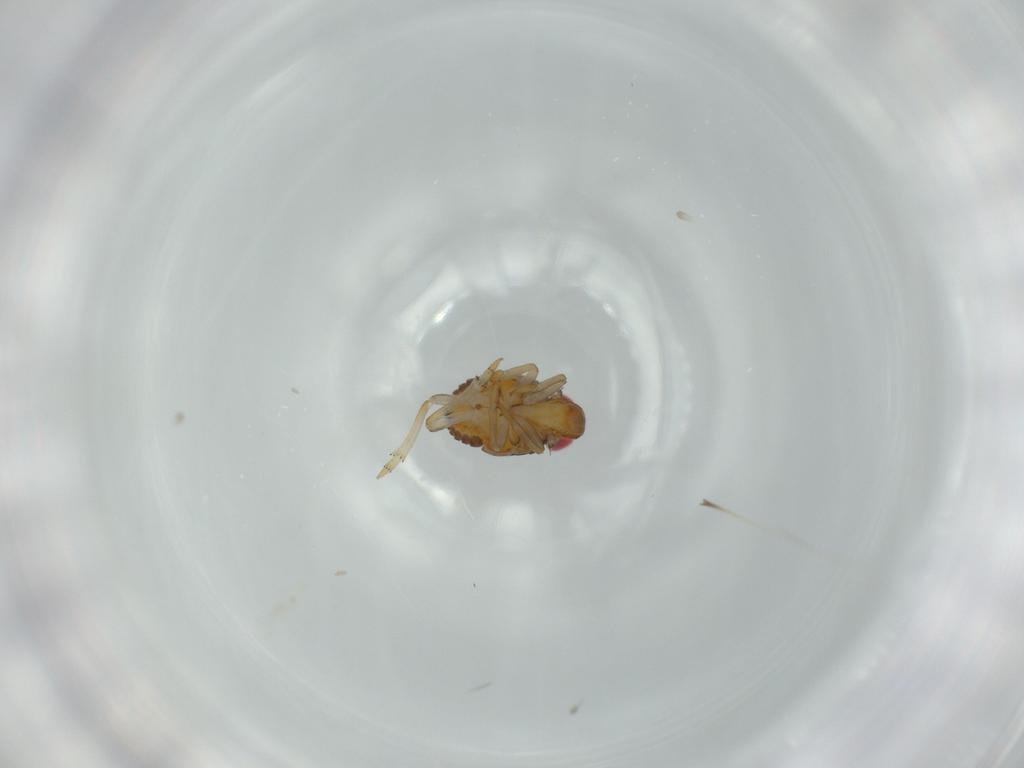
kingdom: Animalia
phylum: Arthropoda
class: Insecta
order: Hemiptera
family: Issidae
